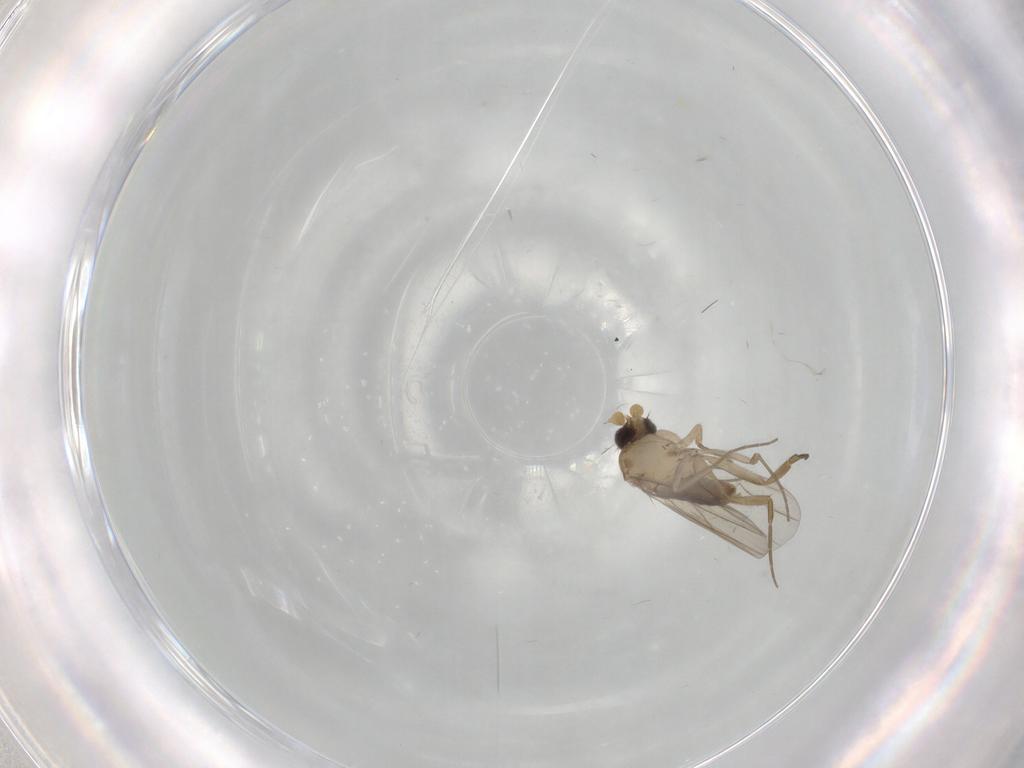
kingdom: Animalia
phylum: Arthropoda
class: Insecta
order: Diptera
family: Phoridae
